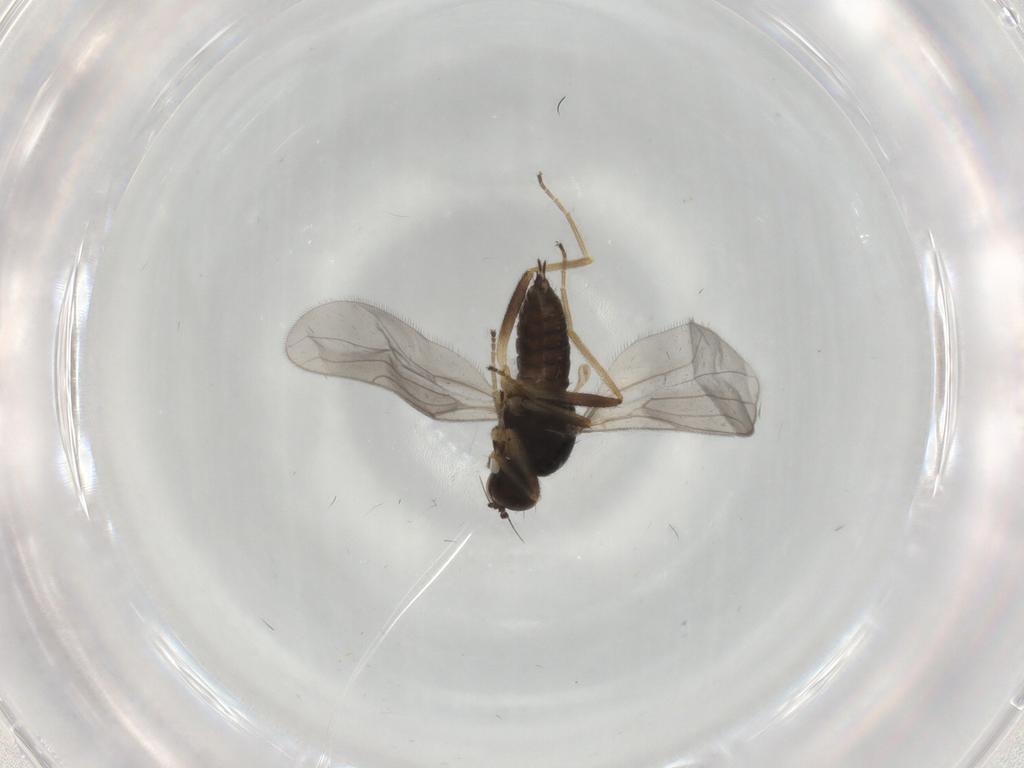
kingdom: Animalia
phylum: Arthropoda
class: Insecta
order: Diptera
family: Hybotidae
